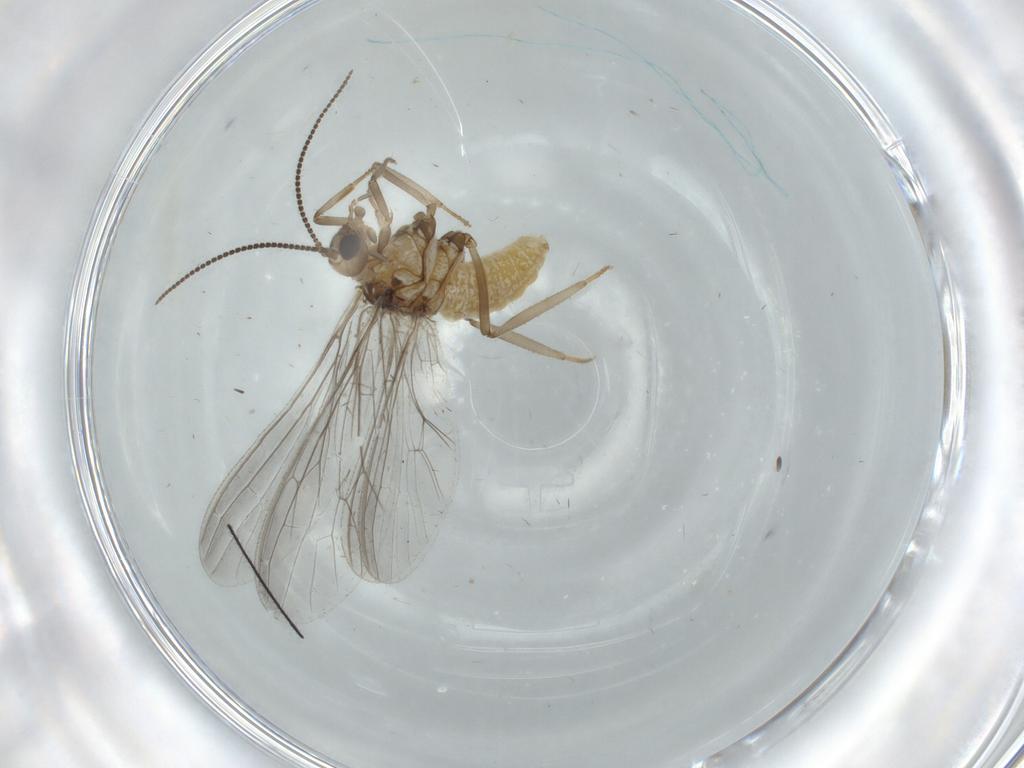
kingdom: Animalia
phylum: Arthropoda
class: Insecta
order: Neuroptera
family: Coniopterygidae
